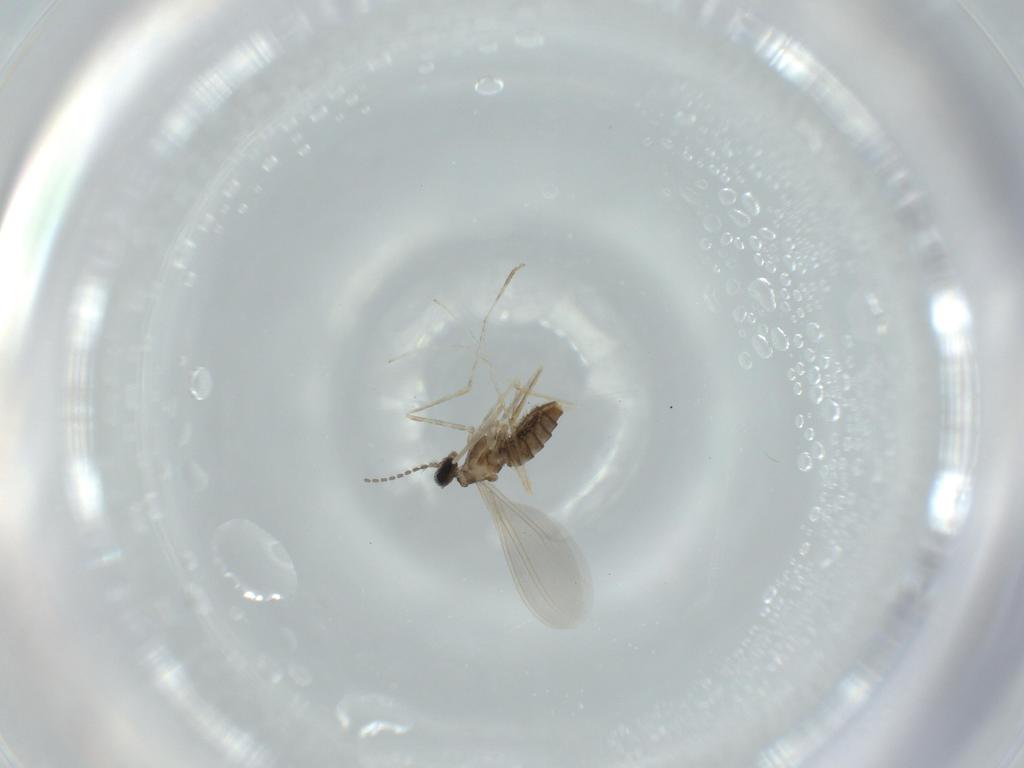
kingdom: Animalia
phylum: Arthropoda
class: Insecta
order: Diptera
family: Cecidomyiidae
